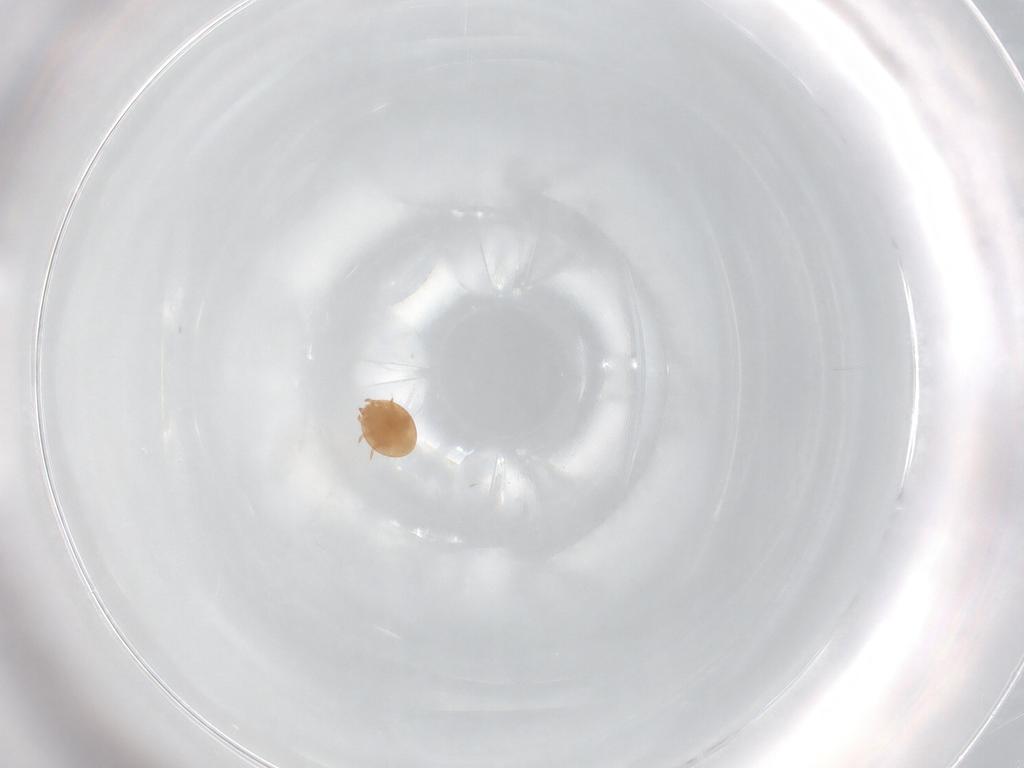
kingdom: Animalia
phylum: Arthropoda
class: Arachnida
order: Mesostigmata
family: Trematuridae
